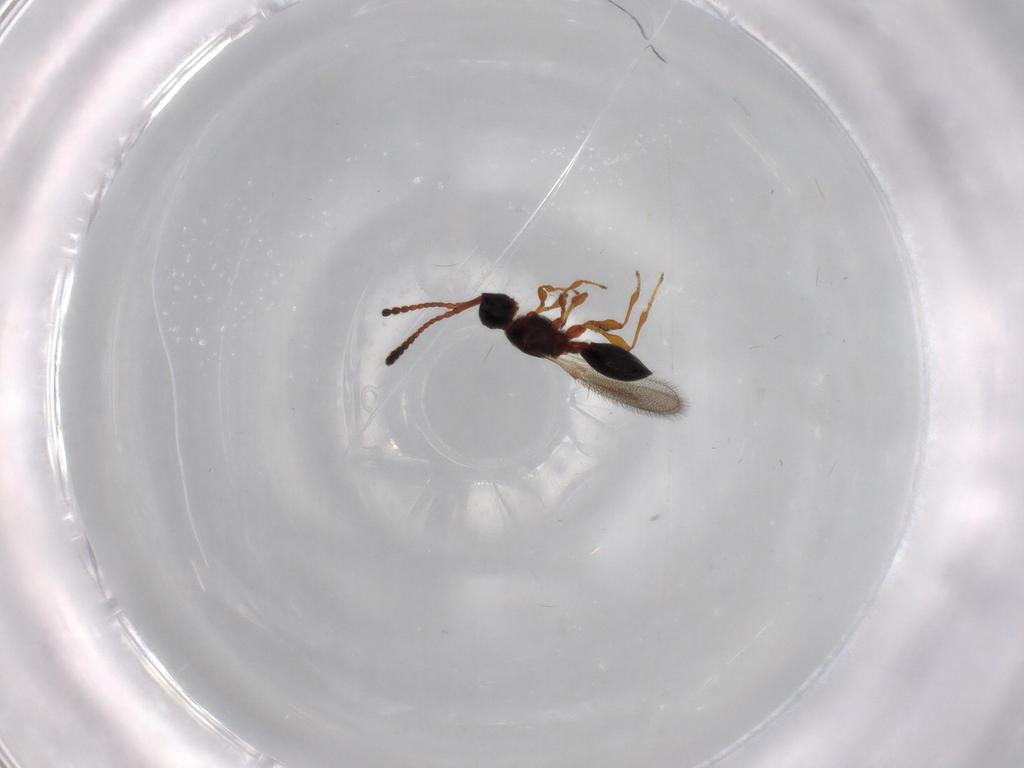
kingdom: Animalia
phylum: Arthropoda
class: Insecta
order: Hymenoptera
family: Diapriidae
